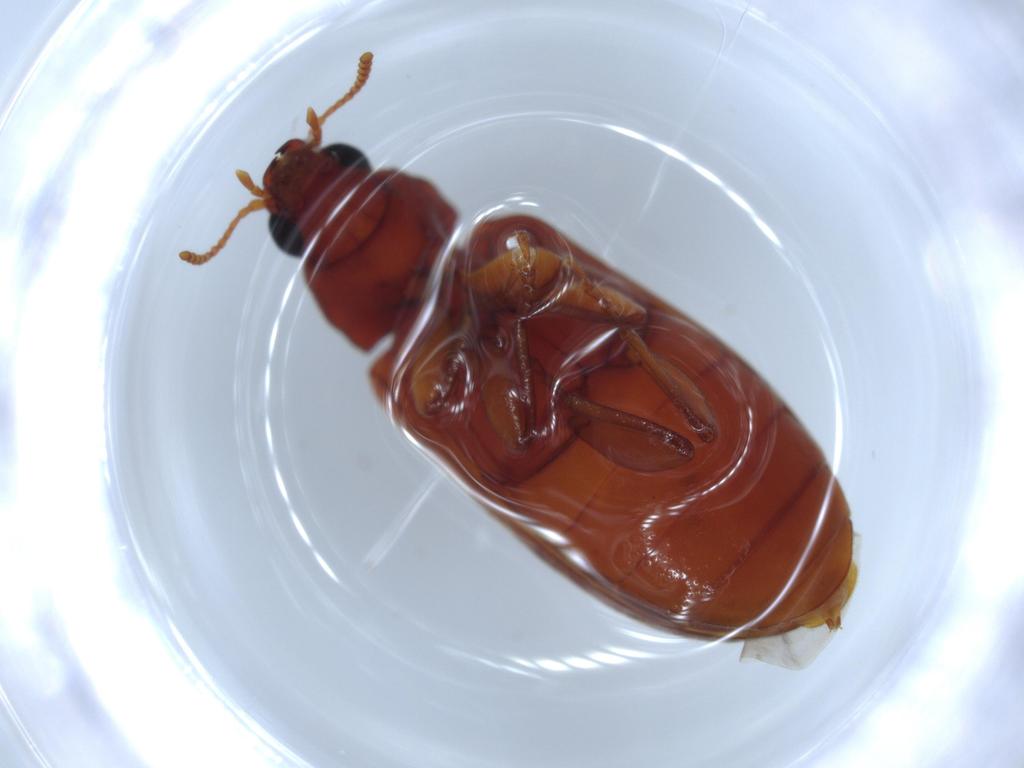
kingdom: Animalia
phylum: Arthropoda
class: Insecta
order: Coleoptera
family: Mycteridae
